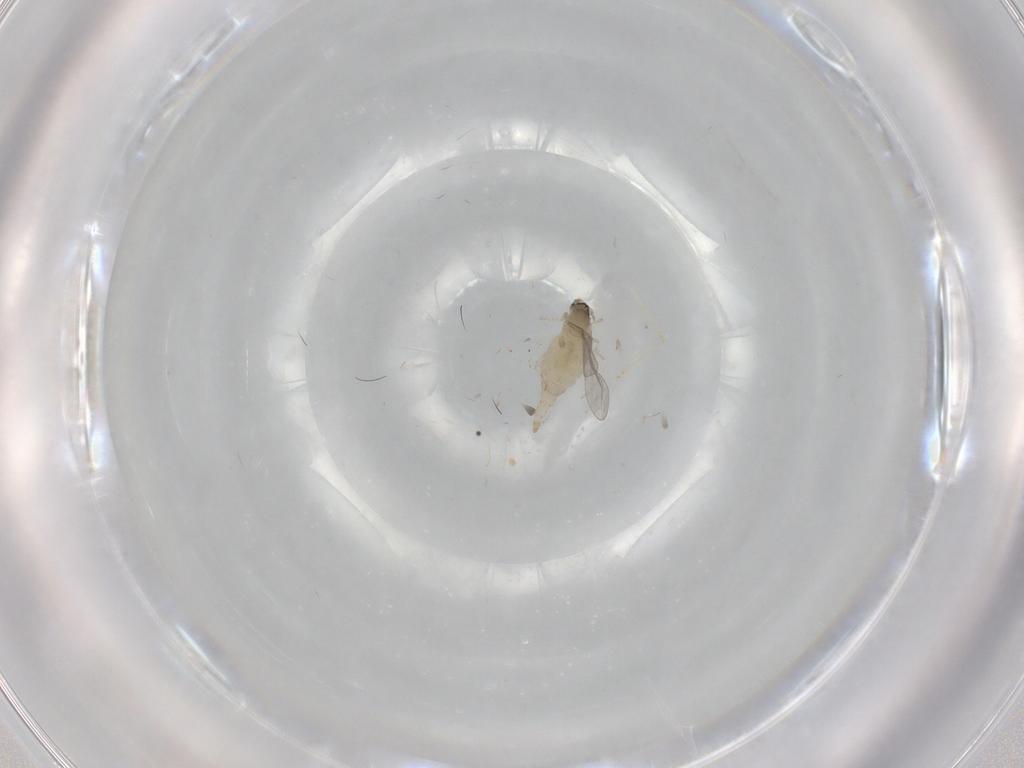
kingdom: Animalia
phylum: Arthropoda
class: Insecta
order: Diptera
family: Cecidomyiidae
